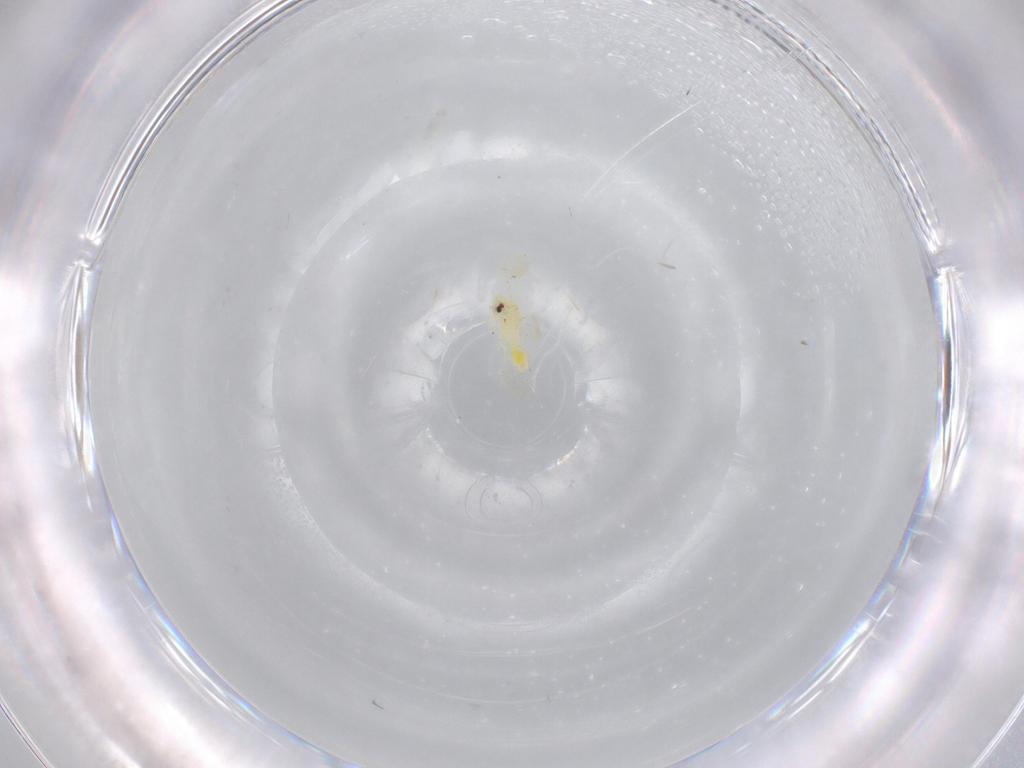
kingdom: Animalia
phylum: Arthropoda
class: Insecta
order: Hemiptera
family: Aleyrodidae
